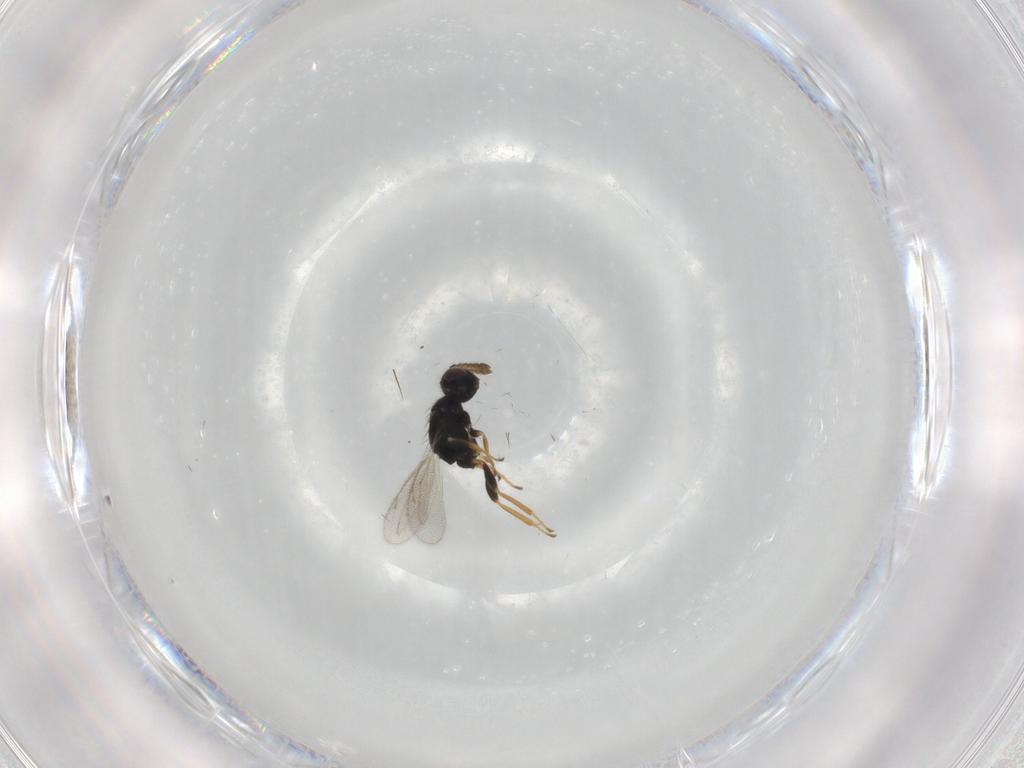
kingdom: Animalia
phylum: Arthropoda
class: Insecta
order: Hymenoptera
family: Eulophidae
